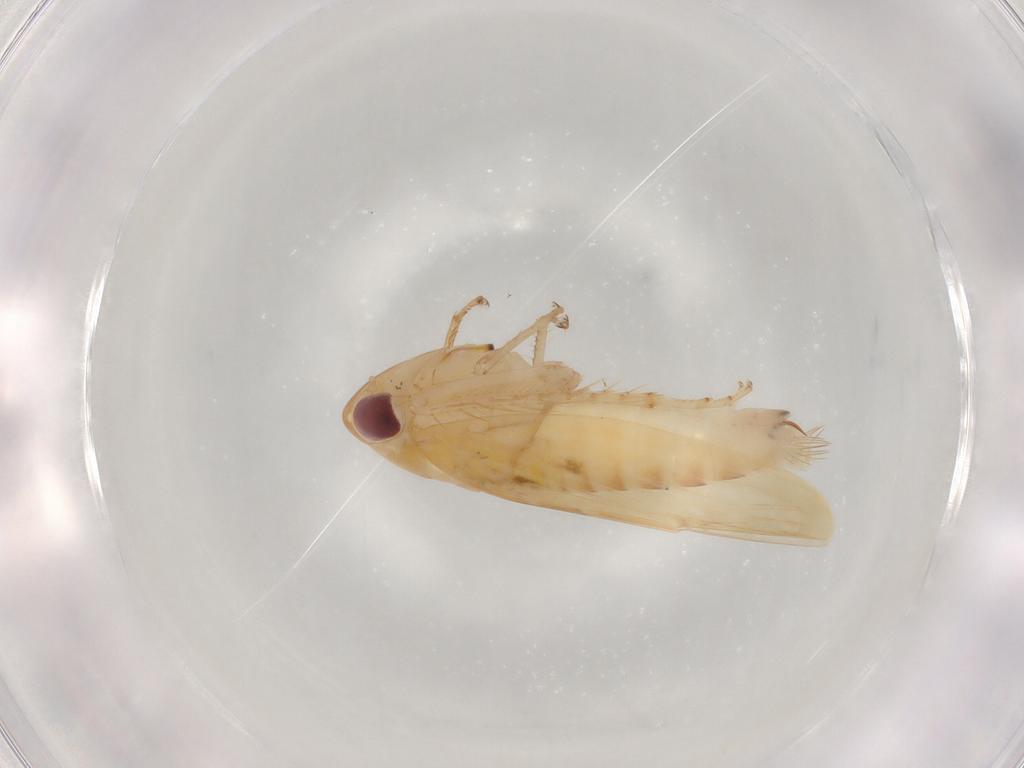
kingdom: Animalia
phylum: Arthropoda
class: Insecta
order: Hemiptera
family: Cicadellidae
